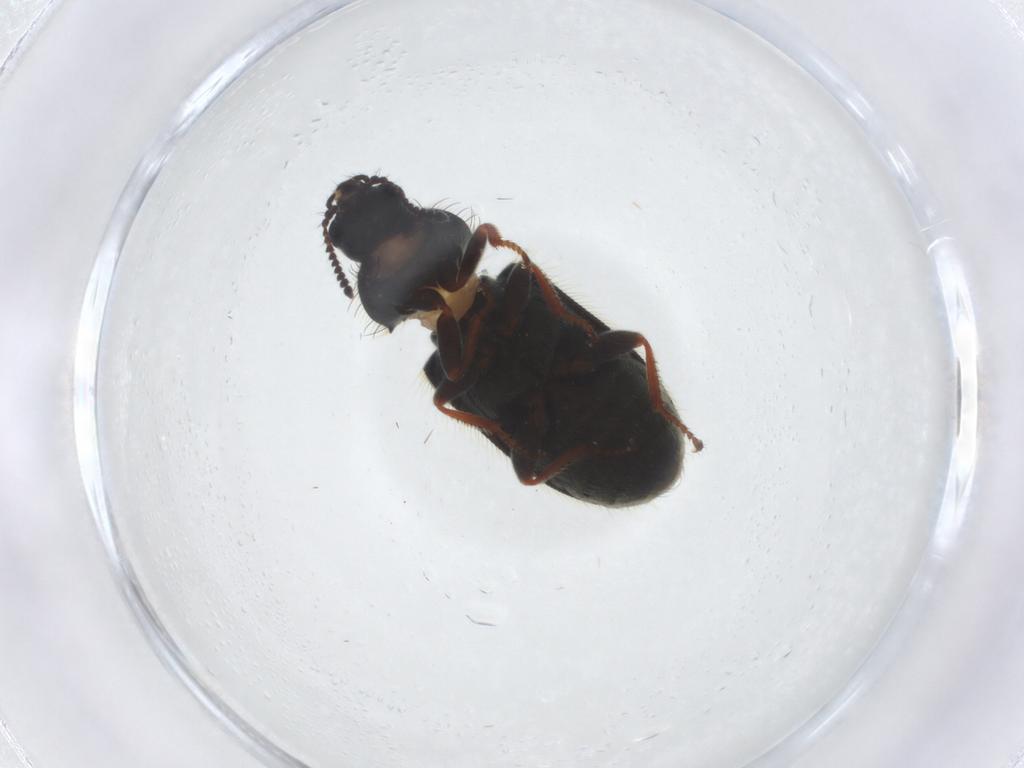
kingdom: Animalia
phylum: Arthropoda
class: Insecta
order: Coleoptera
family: Melyridae
